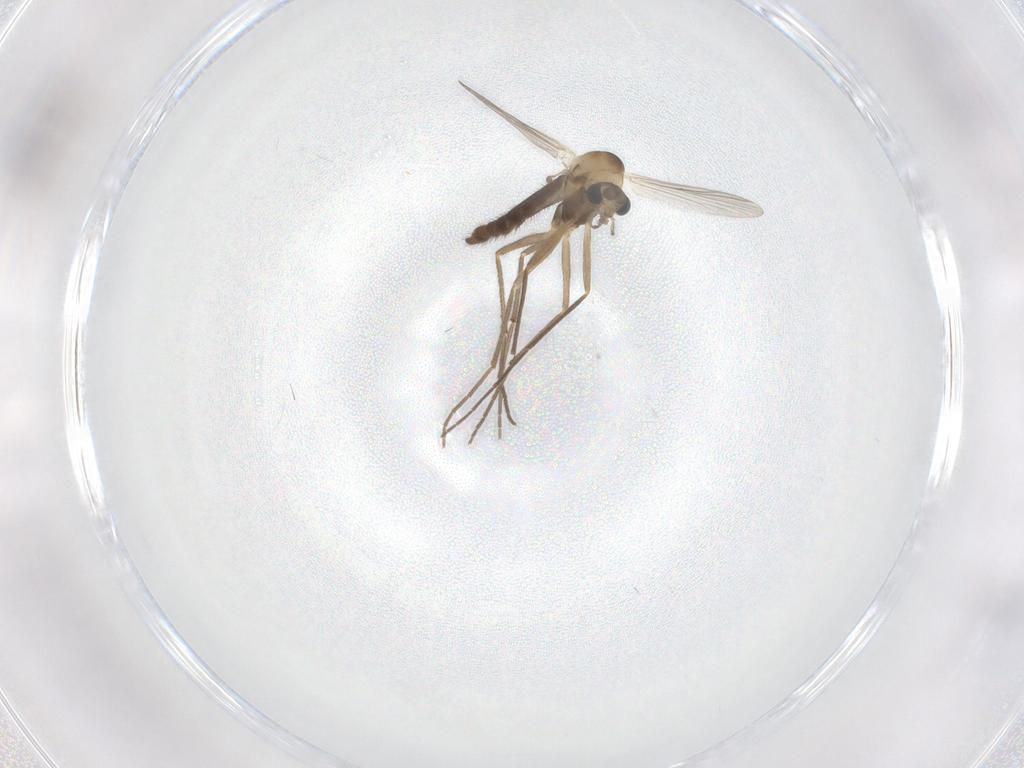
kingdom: Animalia
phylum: Arthropoda
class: Insecta
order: Diptera
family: Chironomidae
